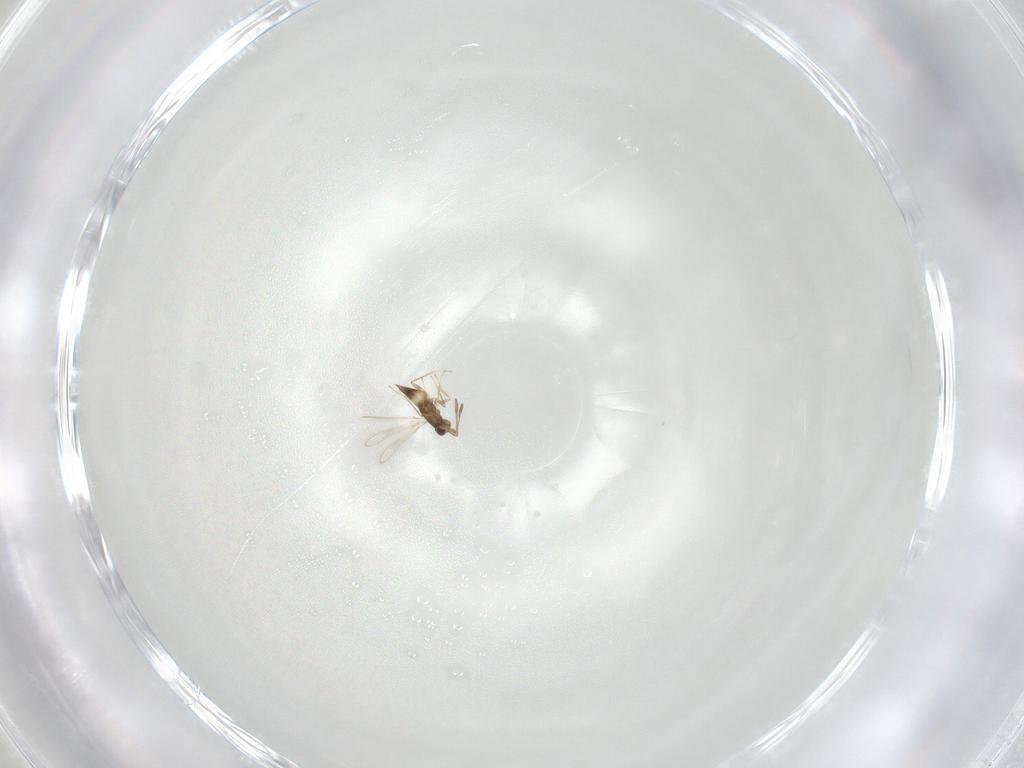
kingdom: Animalia
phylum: Arthropoda
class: Insecta
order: Hymenoptera
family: Mymaridae
